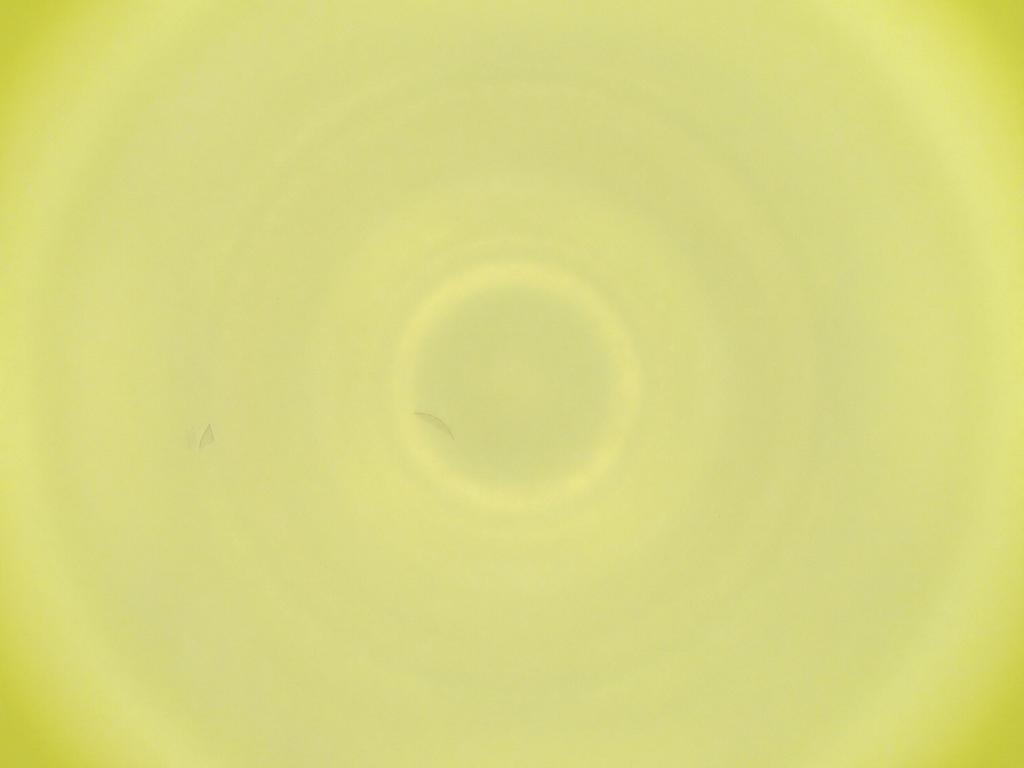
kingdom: Animalia
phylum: Arthropoda
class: Insecta
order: Diptera
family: Cecidomyiidae
